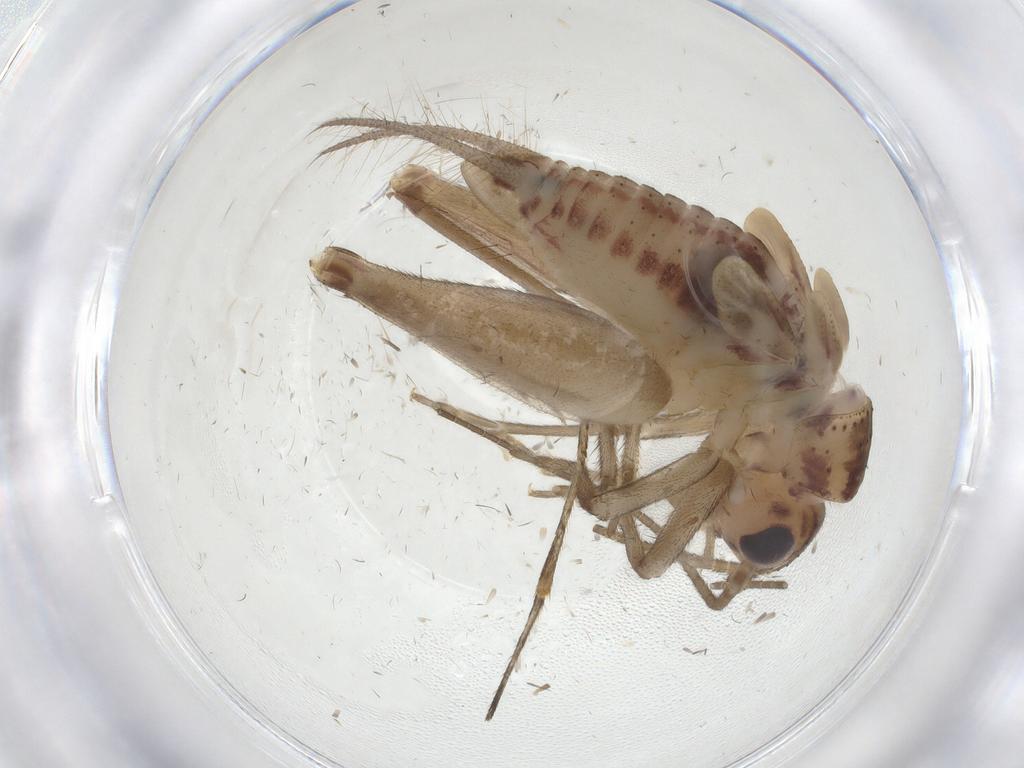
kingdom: Animalia
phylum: Arthropoda
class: Insecta
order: Orthoptera
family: Trigonidiidae
